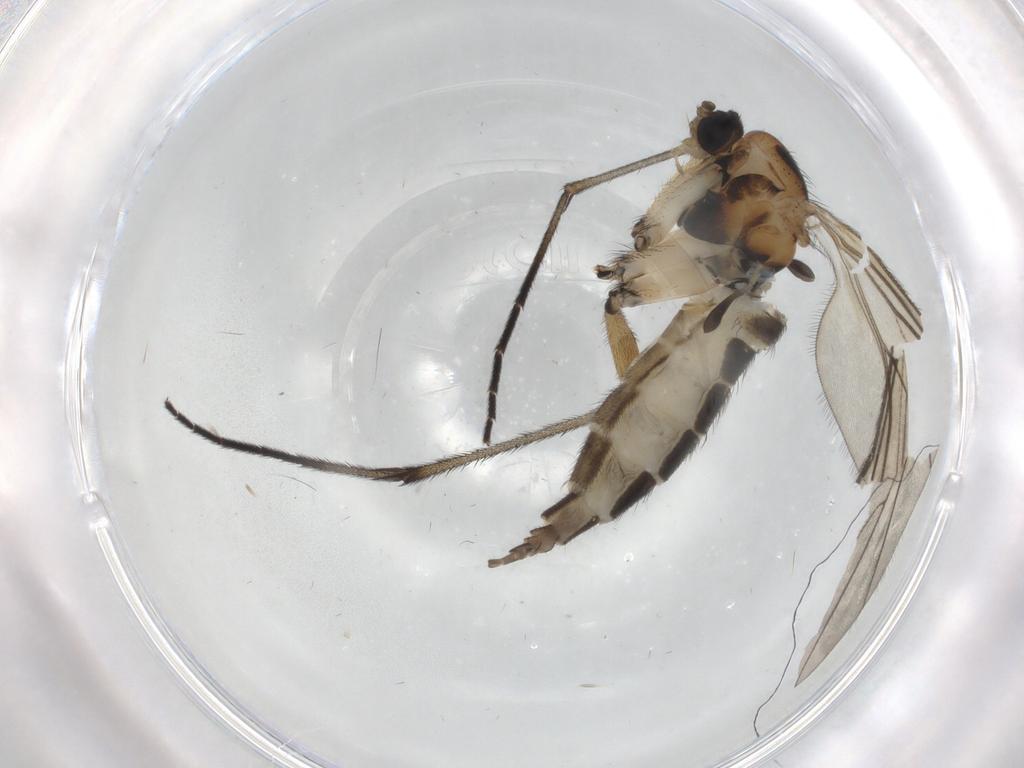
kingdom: Animalia
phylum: Arthropoda
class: Insecta
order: Diptera
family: Sciaridae
